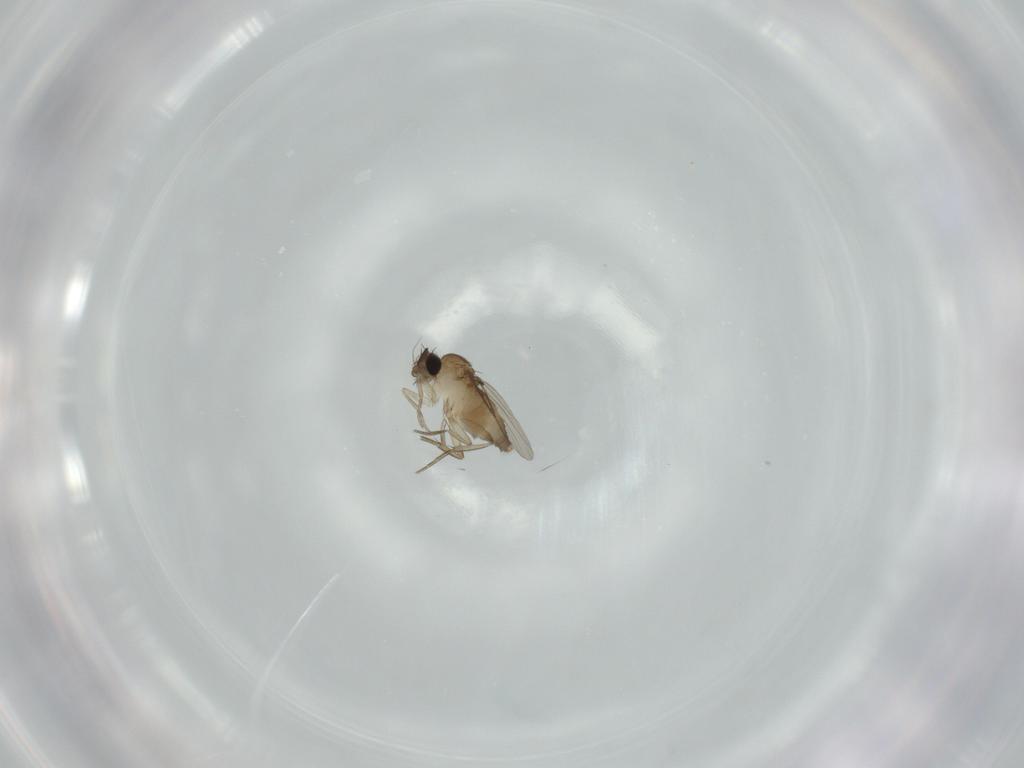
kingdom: Animalia
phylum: Arthropoda
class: Insecta
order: Diptera
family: Phoridae
